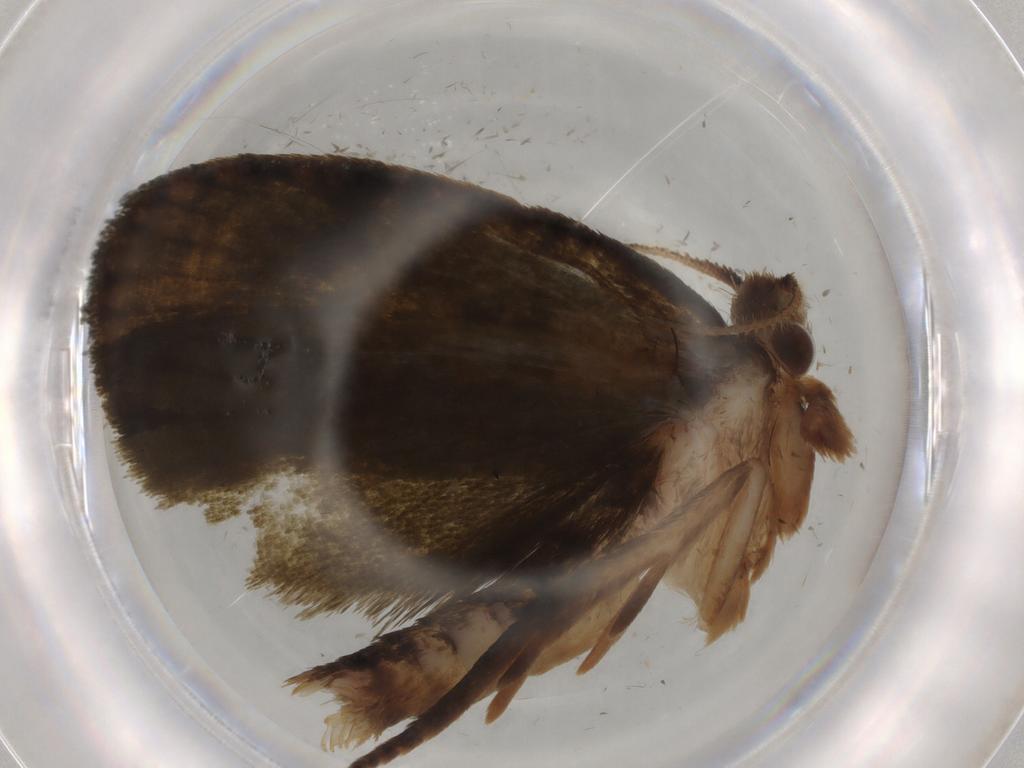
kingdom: Animalia
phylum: Arthropoda
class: Insecta
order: Lepidoptera
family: Geometridae
